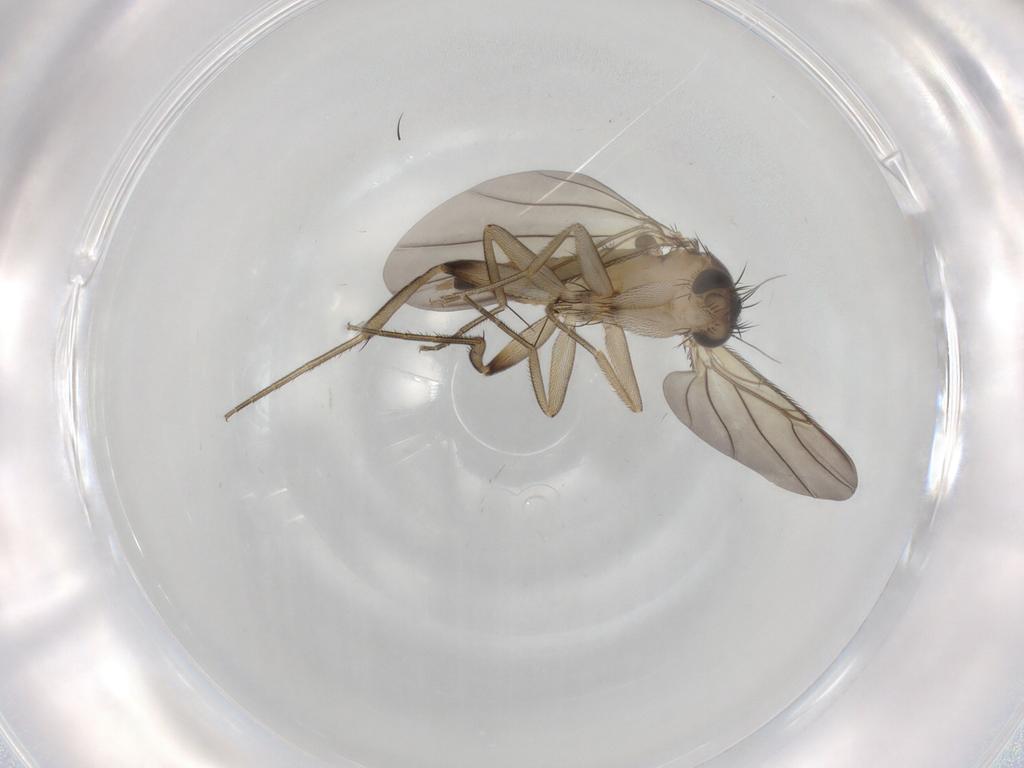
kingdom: Animalia
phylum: Arthropoda
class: Insecta
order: Diptera
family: Phoridae
